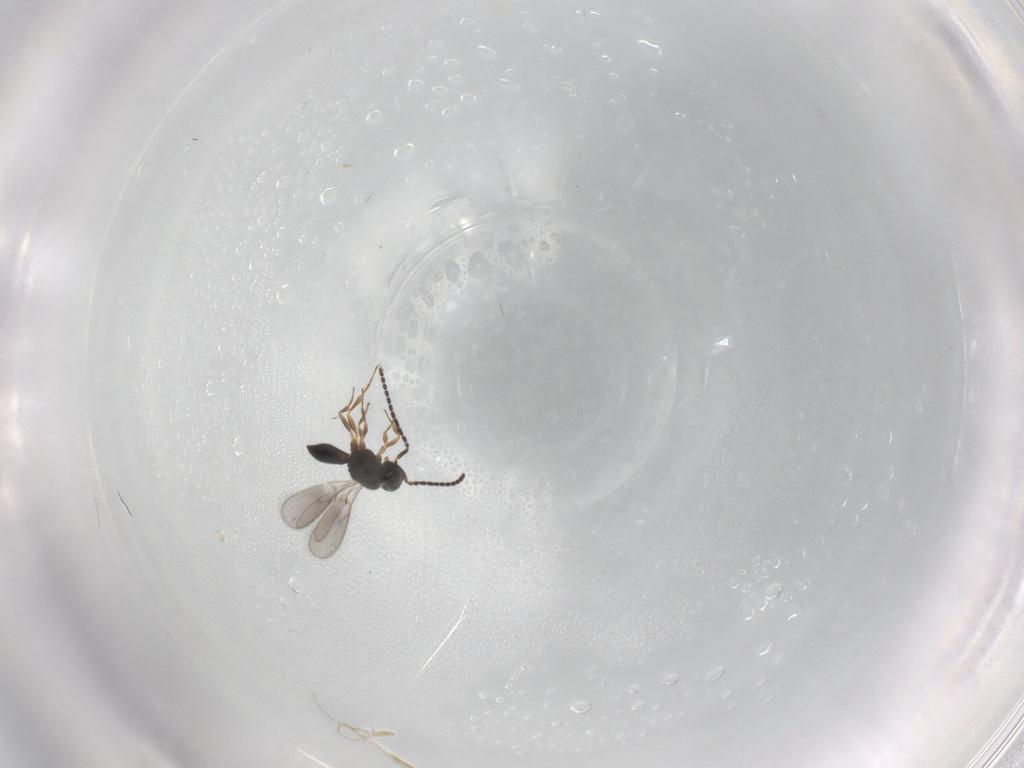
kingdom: Animalia
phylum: Arthropoda
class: Insecta
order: Hymenoptera
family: Scelionidae
